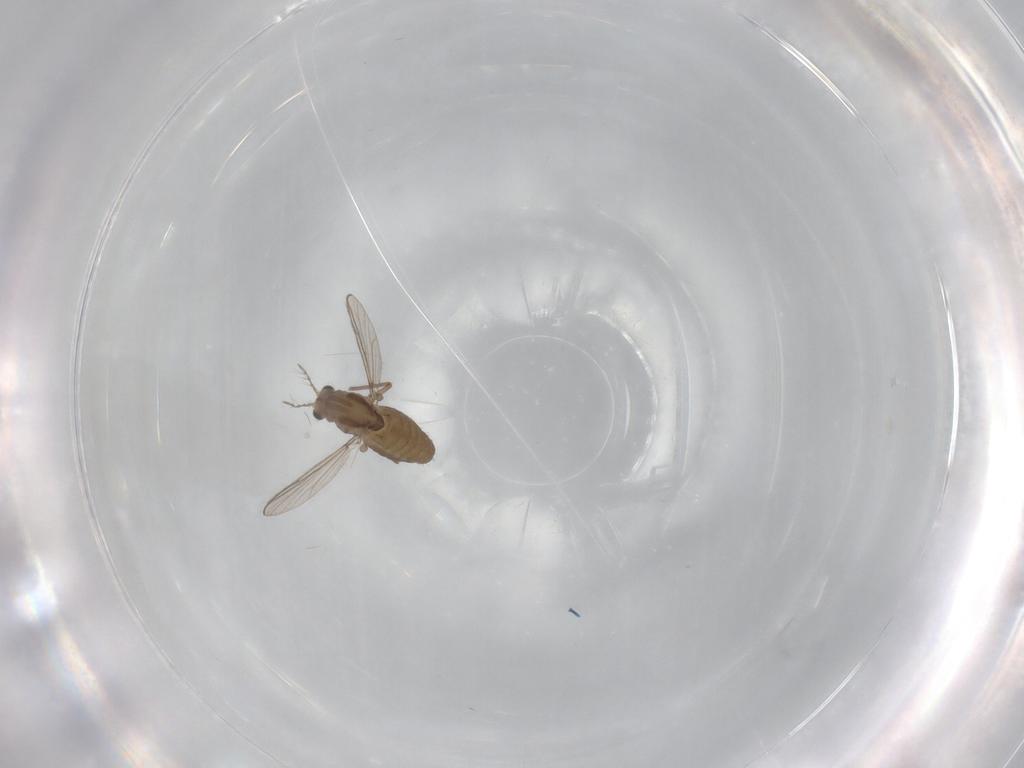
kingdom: Animalia
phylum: Arthropoda
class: Insecta
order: Diptera
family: Chironomidae
